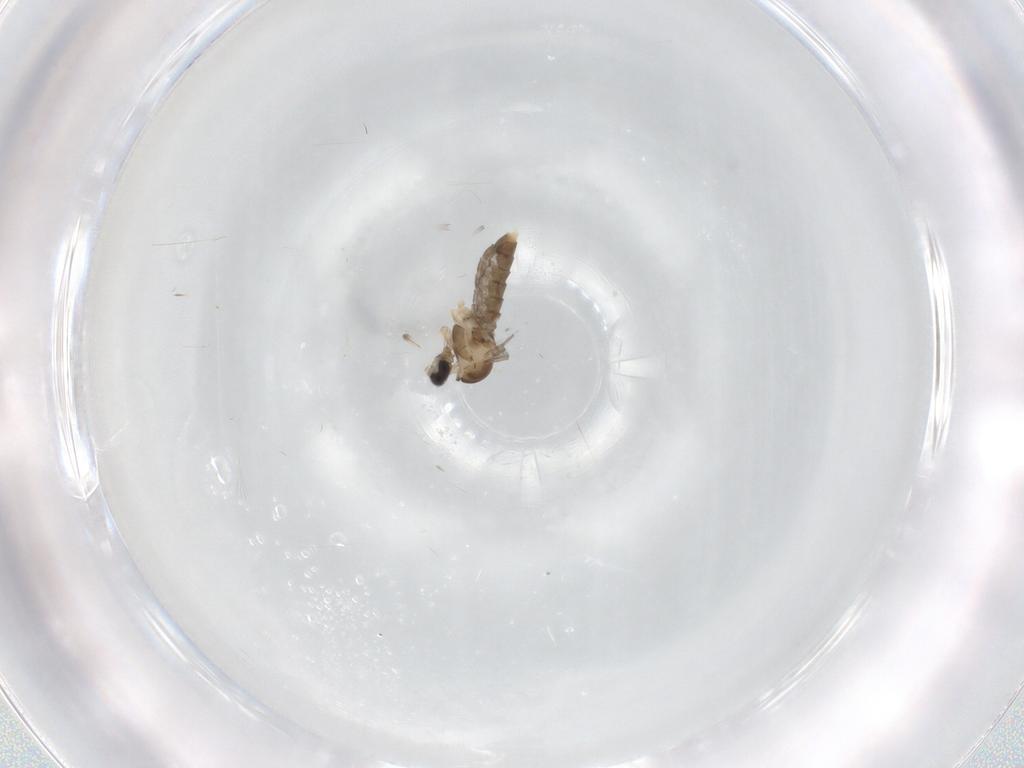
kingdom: Animalia
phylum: Arthropoda
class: Insecta
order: Diptera
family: Cecidomyiidae
